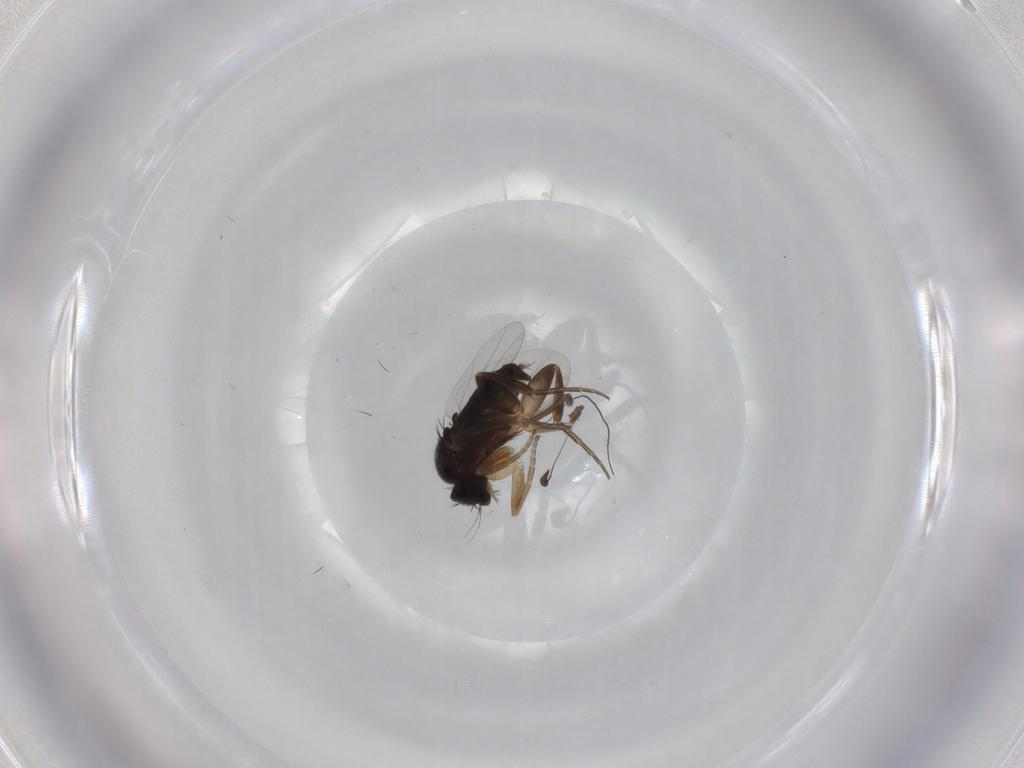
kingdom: Animalia
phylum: Arthropoda
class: Insecta
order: Diptera
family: Phoridae
